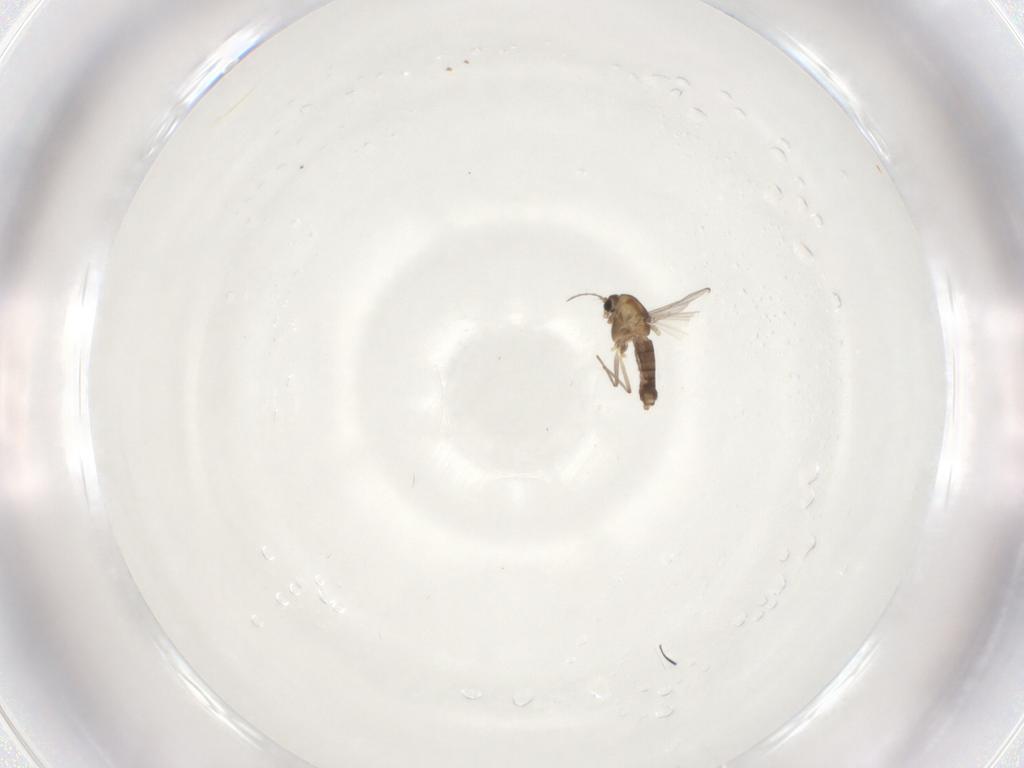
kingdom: Animalia
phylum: Arthropoda
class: Insecta
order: Diptera
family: Chironomidae
